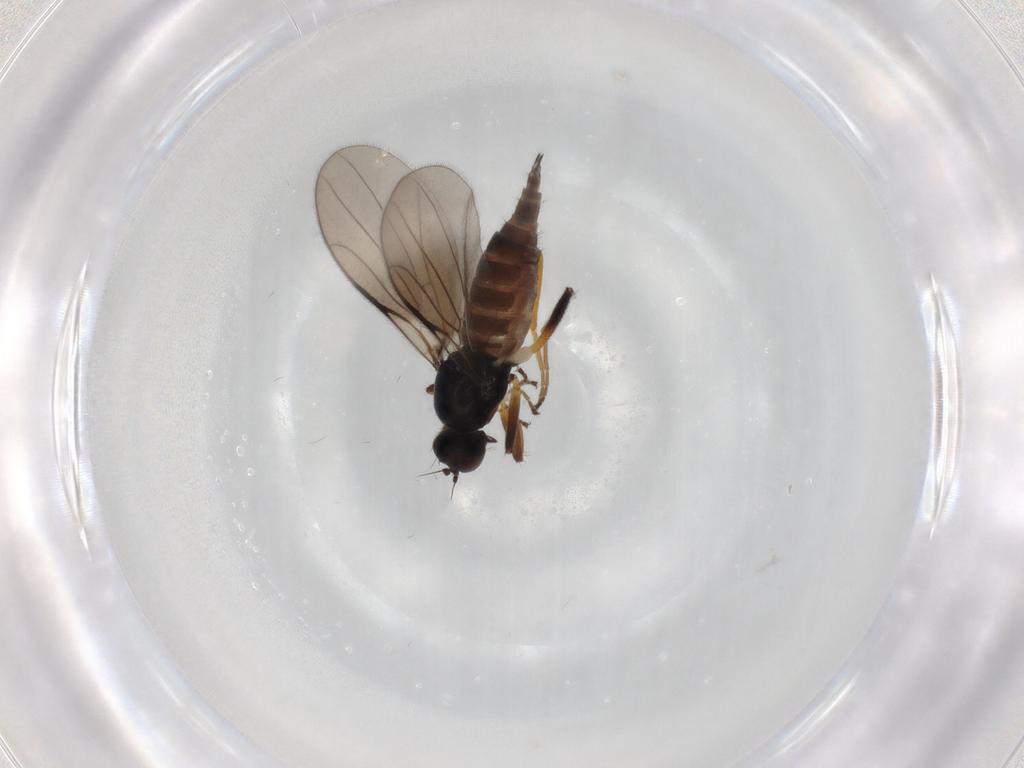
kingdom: Animalia
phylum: Arthropoda
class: Insecta
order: Diptera
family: Hybotidae
